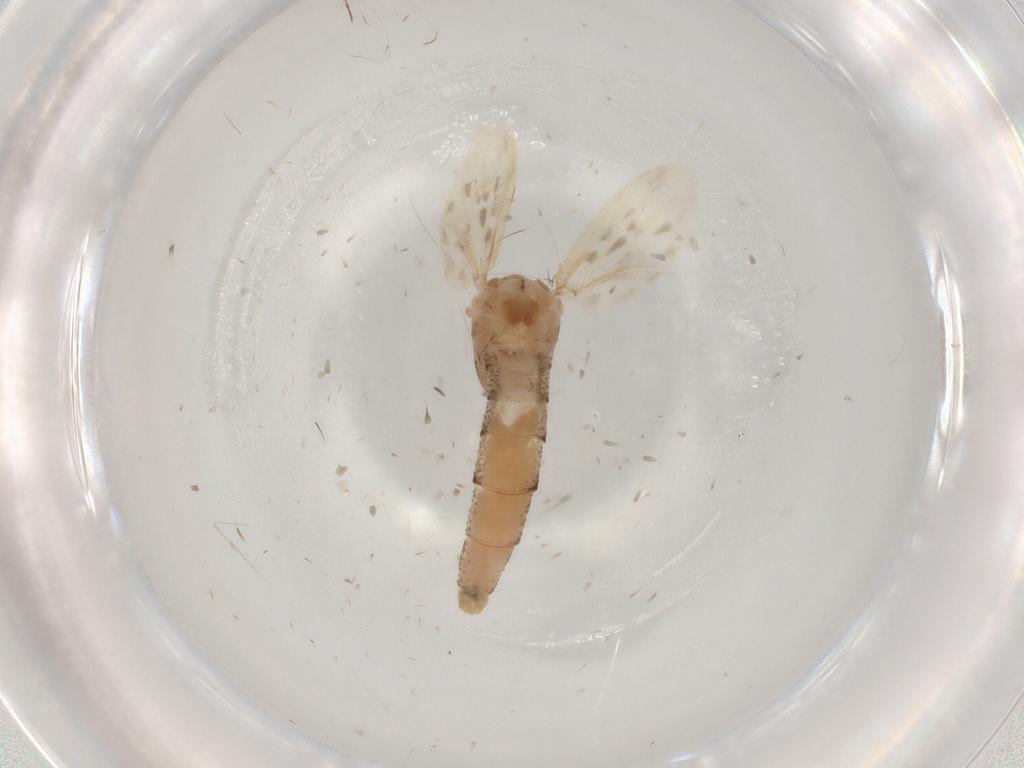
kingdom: Animalia
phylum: Arthropoda
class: Insecta
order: Diptera
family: Chaoboridae
